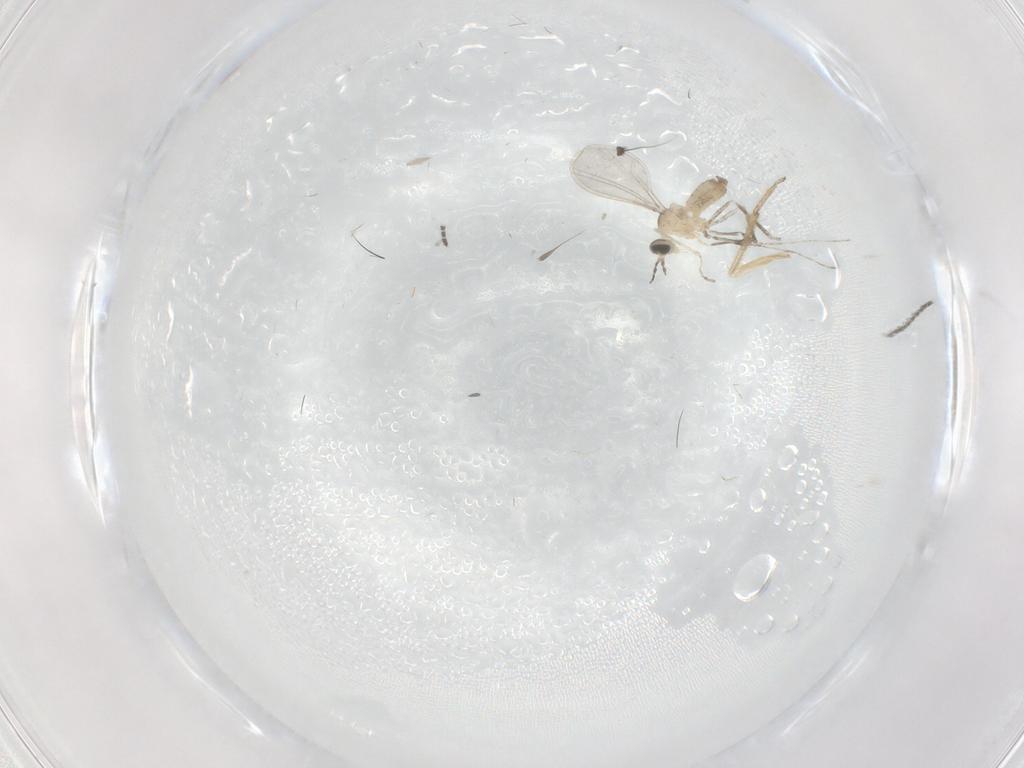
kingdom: Animalia
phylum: Arthropoda
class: Insecta
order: Diptera
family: Cecidomyiidae
